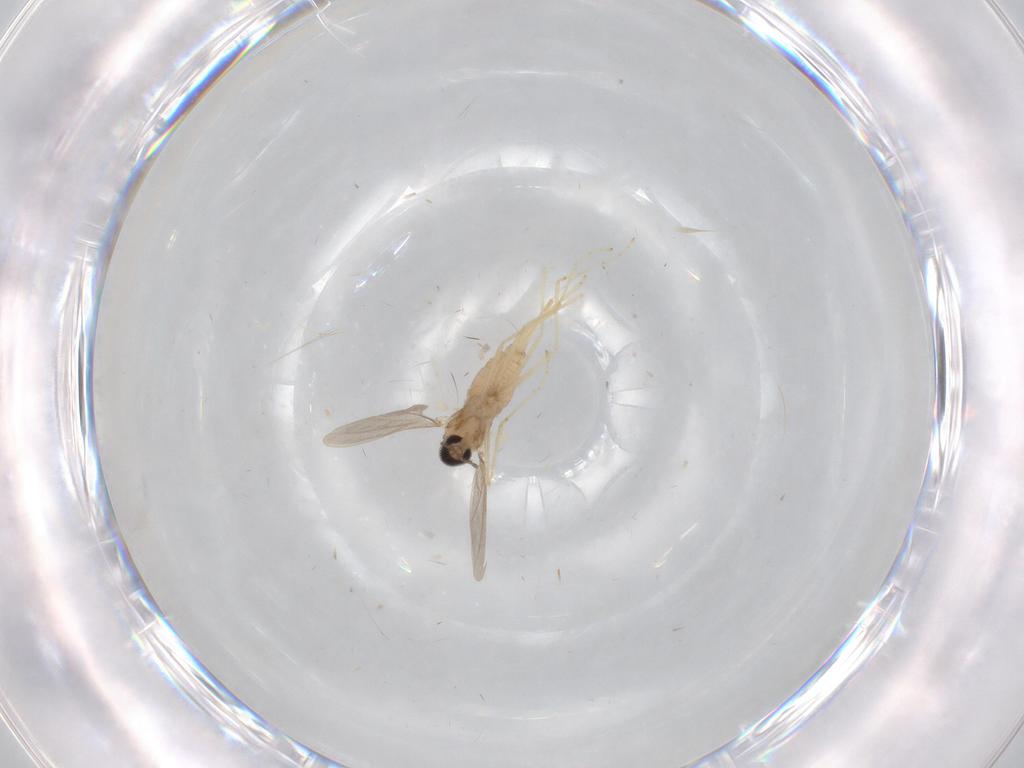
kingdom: Animalia
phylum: Arthropoda
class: Insecta
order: Diptera
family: Cecidomyiidae
